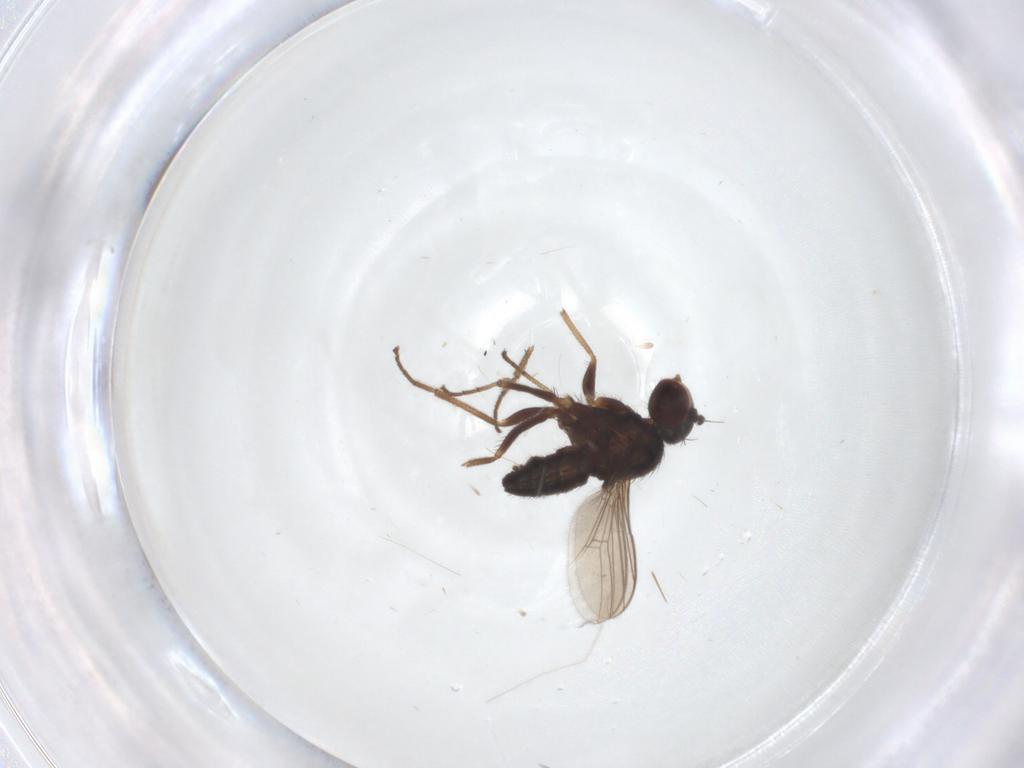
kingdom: Animalia
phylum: Arthropoda
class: Insecta
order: Diptera
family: Dolichopodidae
